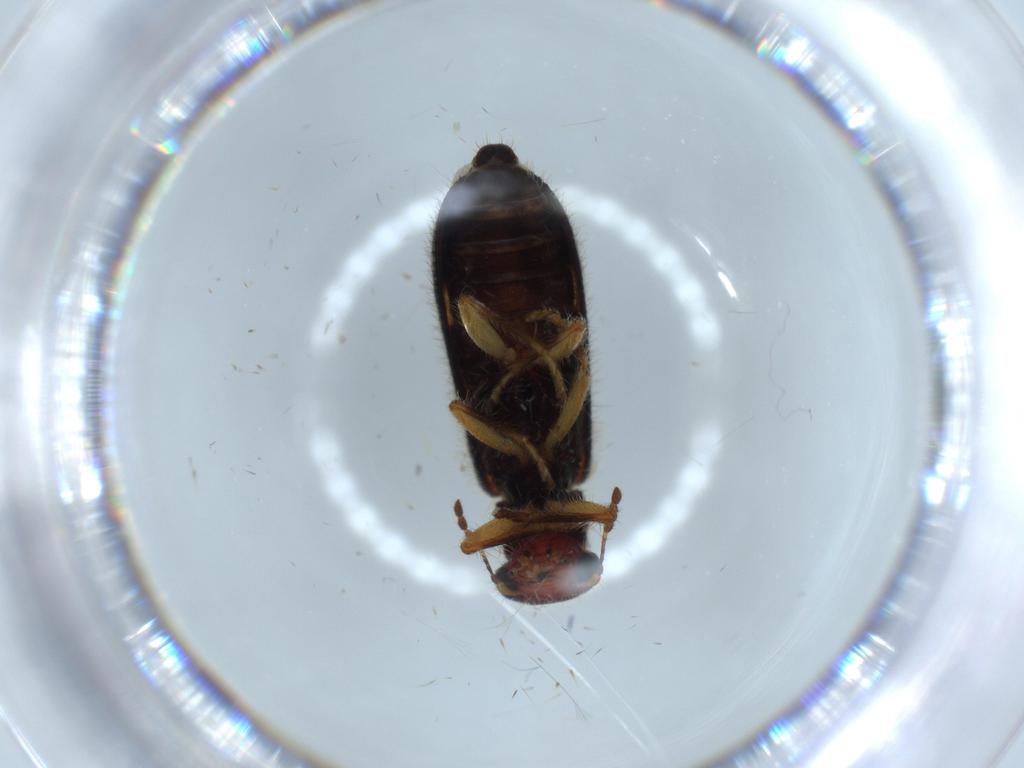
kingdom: Animalia
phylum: Arthropoda
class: Insecta
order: Coleoptera
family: Cleridae
